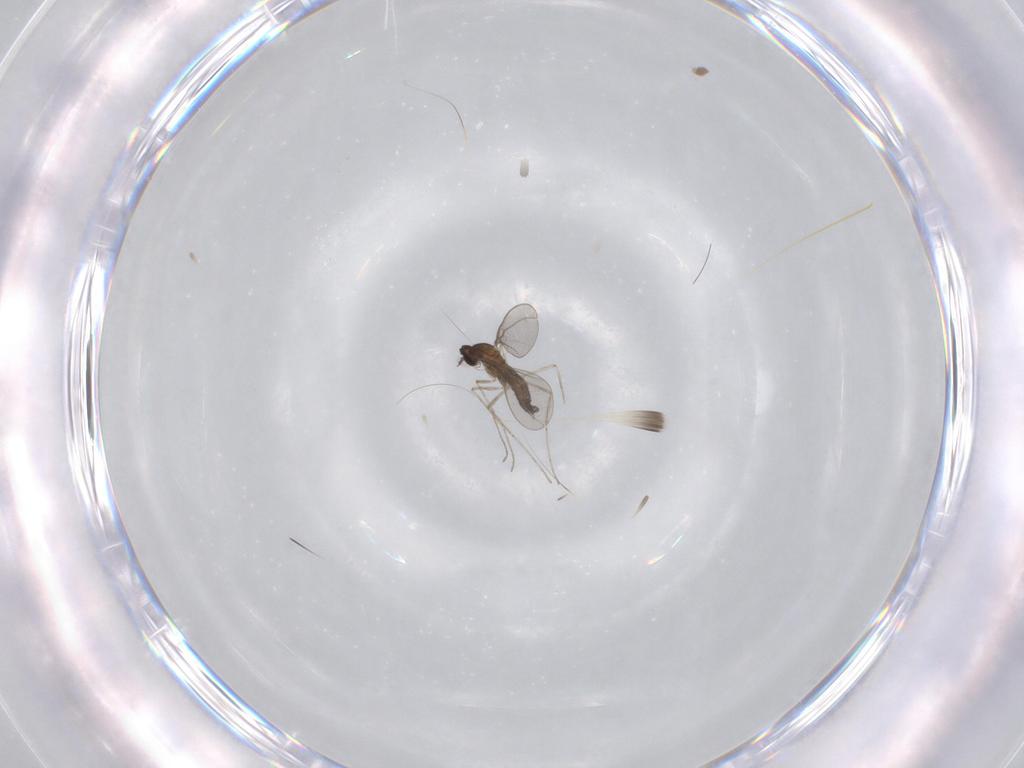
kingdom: Animalia
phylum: Arthropoda
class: Insecta
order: Diptera
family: Cecidomyiidae
